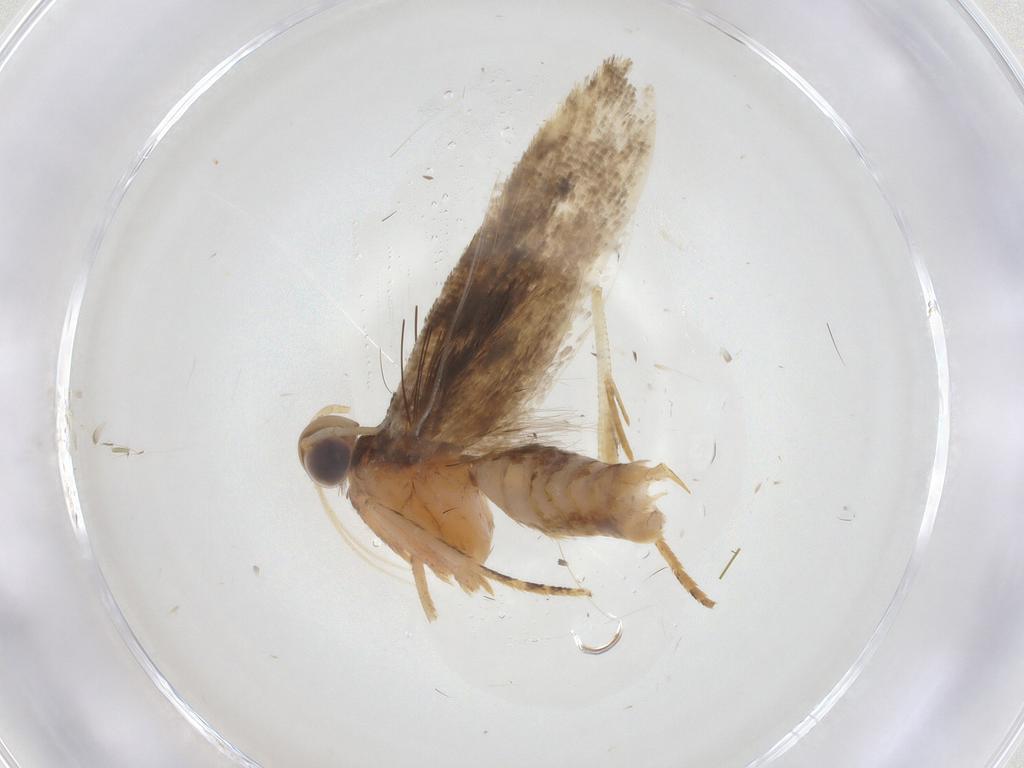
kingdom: Animalia
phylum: Arthropoda
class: Insecta
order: Lepidoptera
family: Gelechiidae
